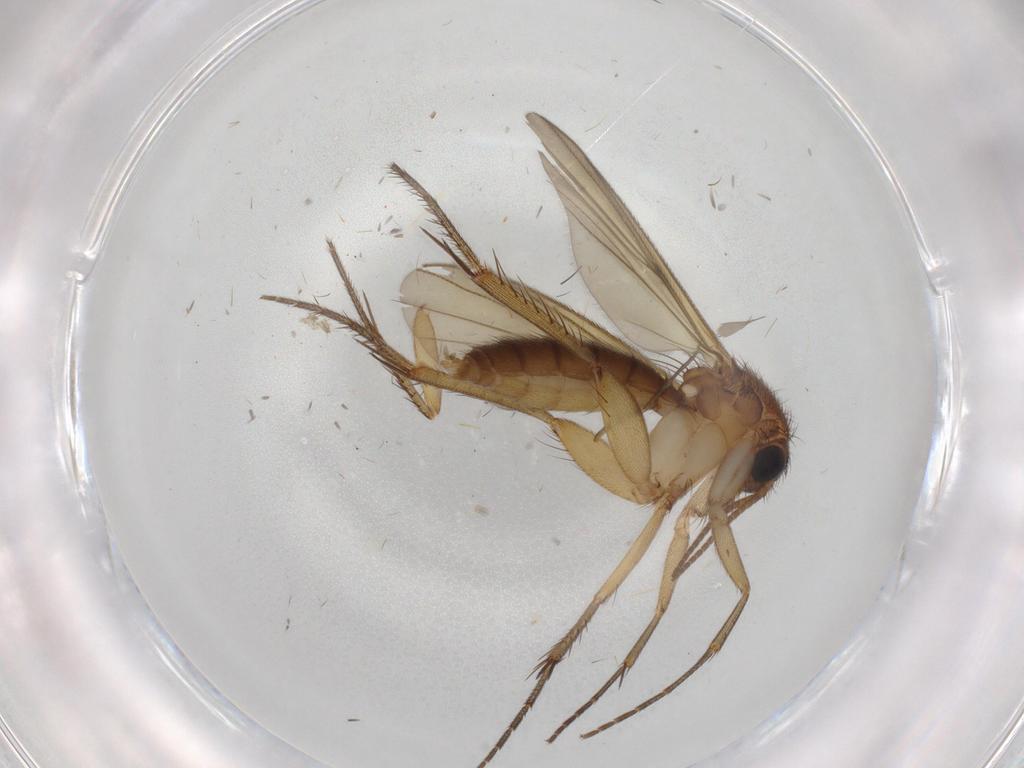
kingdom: Animalia
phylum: Arthropoda
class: Insecta
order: Diptera
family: Phoridae
